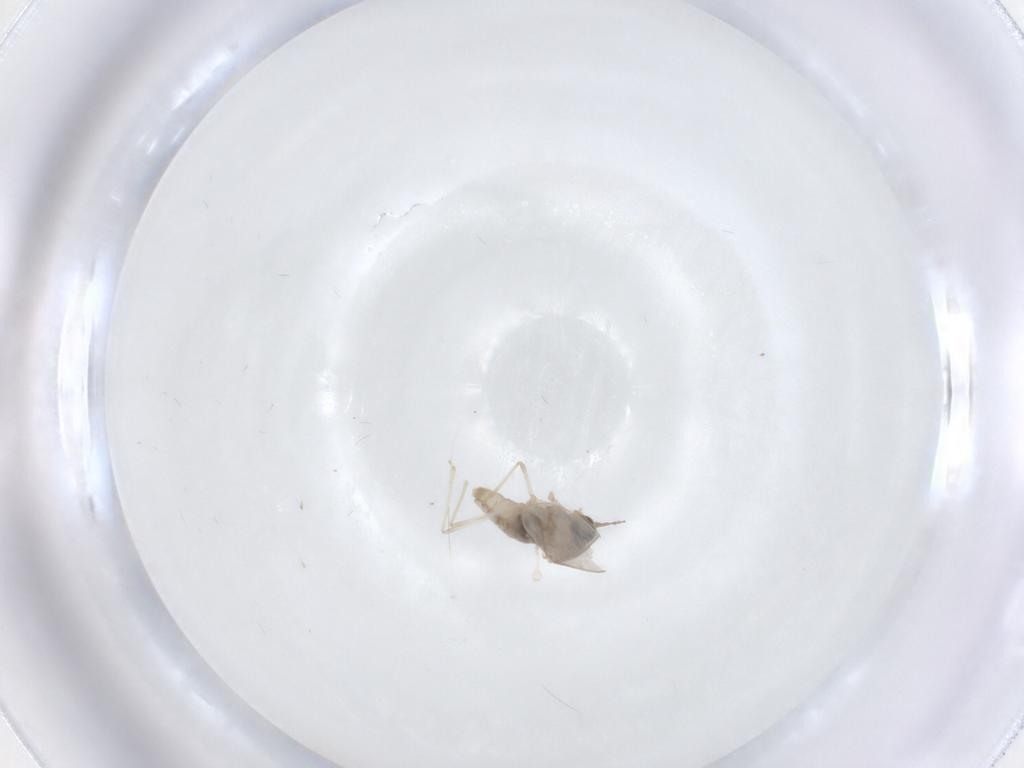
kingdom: Animalia
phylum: Arthropoda
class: Insecta
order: Diptera
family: Cecidomyiidae
